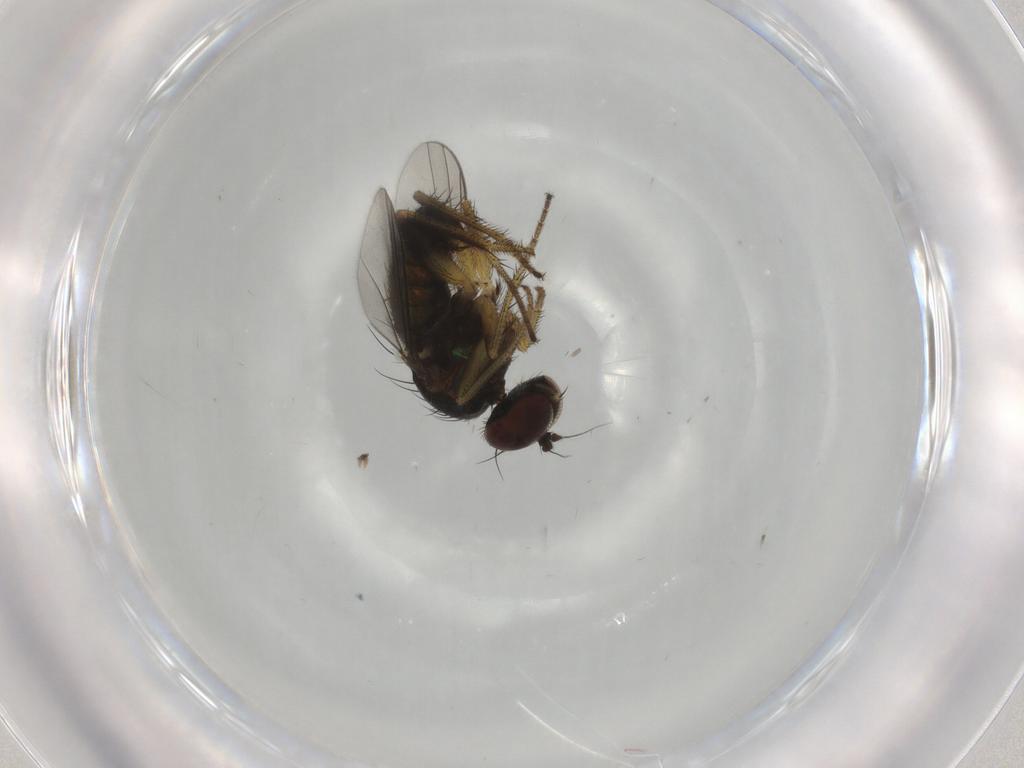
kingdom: Animalia
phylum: Arthropoda
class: Insecta
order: Diptera
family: Dolichopodidae
